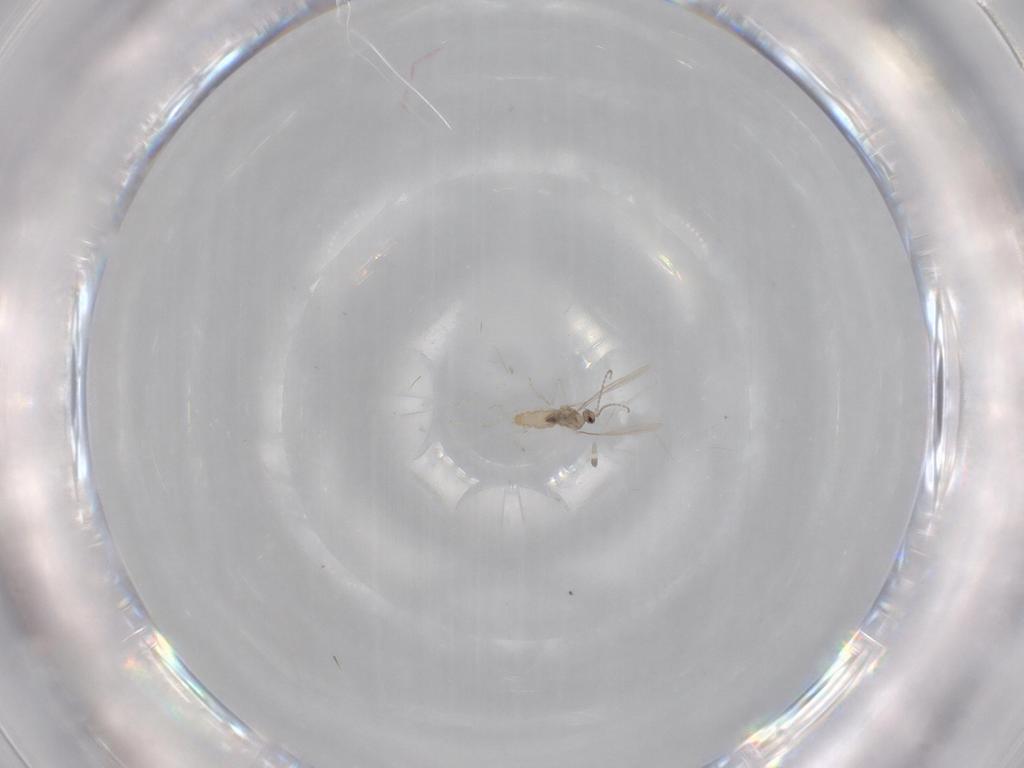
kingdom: Animalia
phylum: Arthropoda
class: Insecta
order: Diptera
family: Cecidomyiidae
